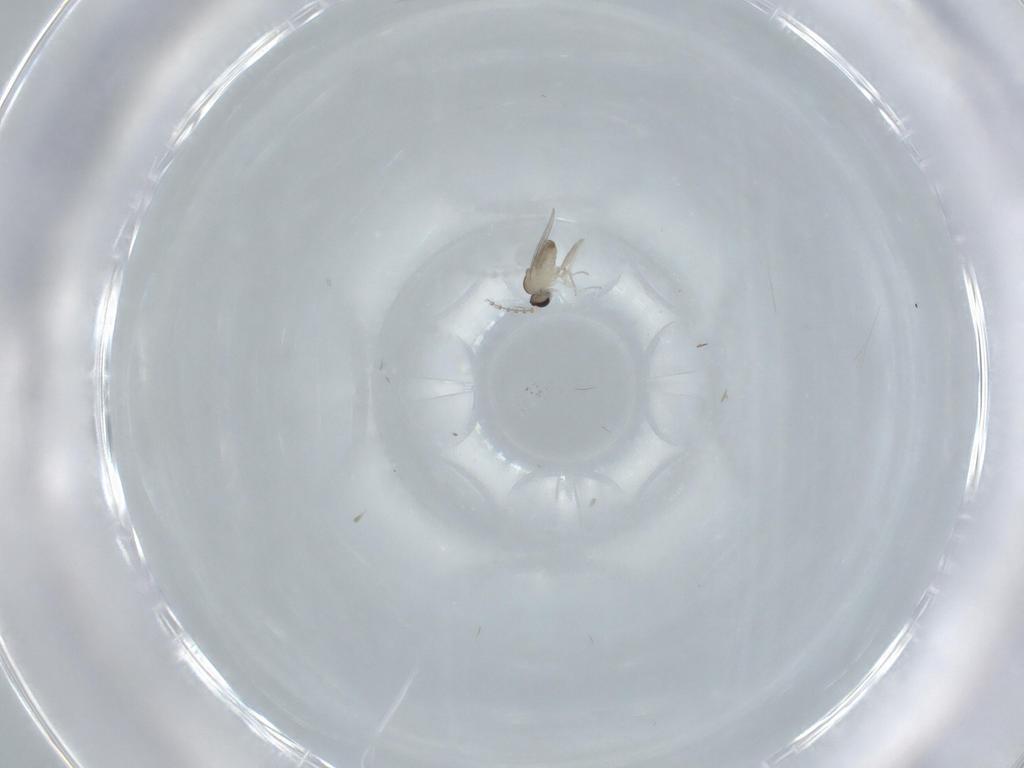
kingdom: Animalia
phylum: Arthropoda
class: Insecta
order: Diptera
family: Cecidomyiidae
